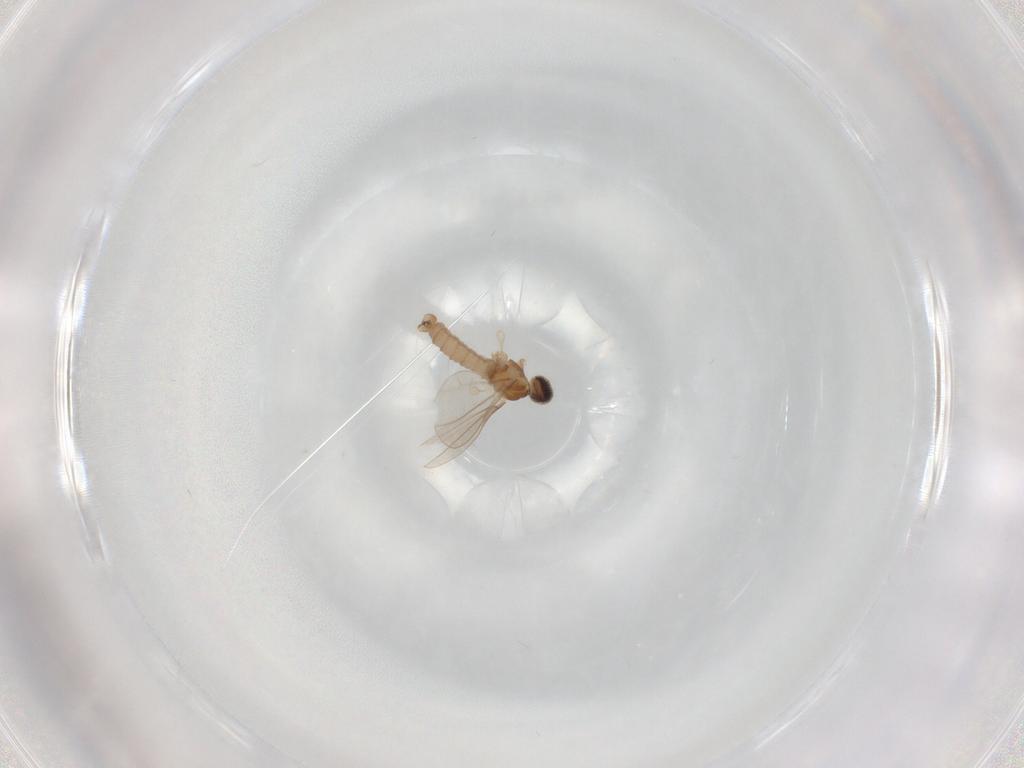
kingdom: Animalia
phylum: Arthropoda
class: Insecta
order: Diptera
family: Cecidomyiidae
